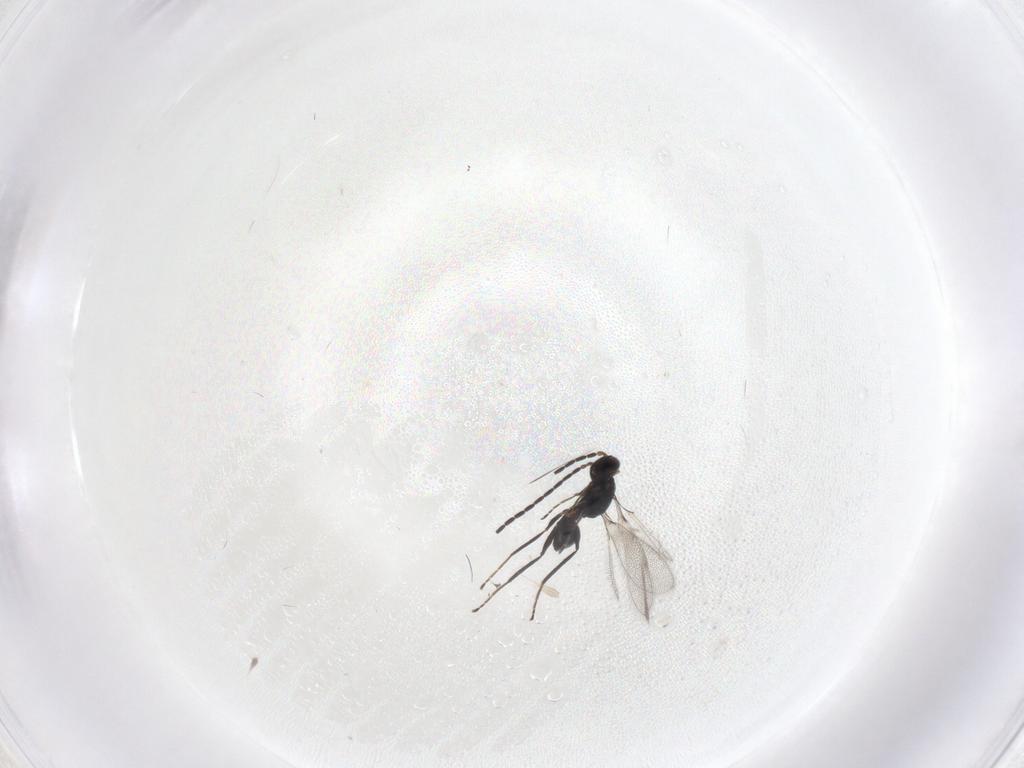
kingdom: Animalia
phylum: Arthropoda
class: Insecta
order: Hymenoptera
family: Mymaridae
